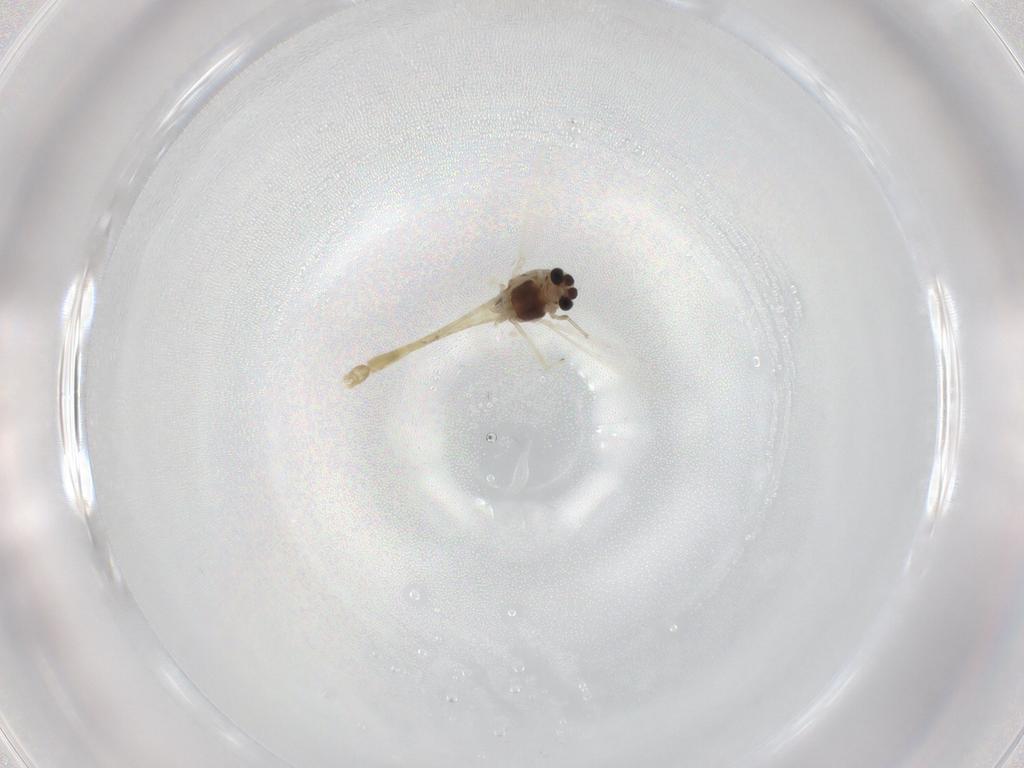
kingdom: Animalia
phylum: Arthropoda
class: Insecta
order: Diptera
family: Chironomidae
